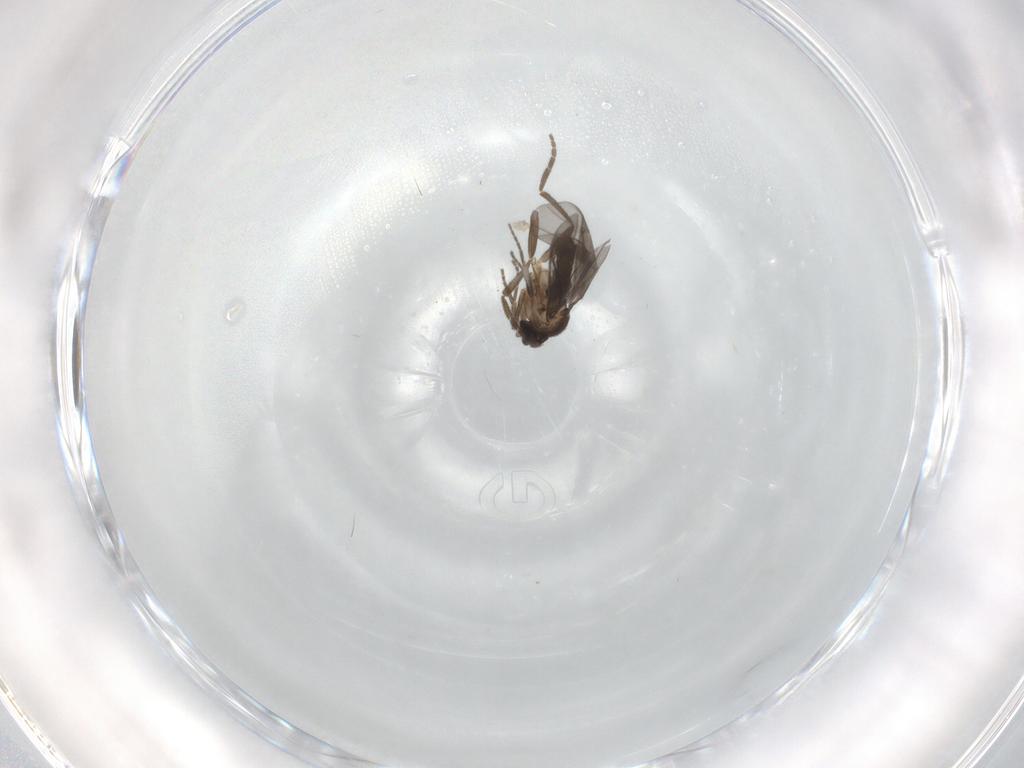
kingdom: Animalia
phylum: Arthropoda
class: Insecta
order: Diptera
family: Phoridae
